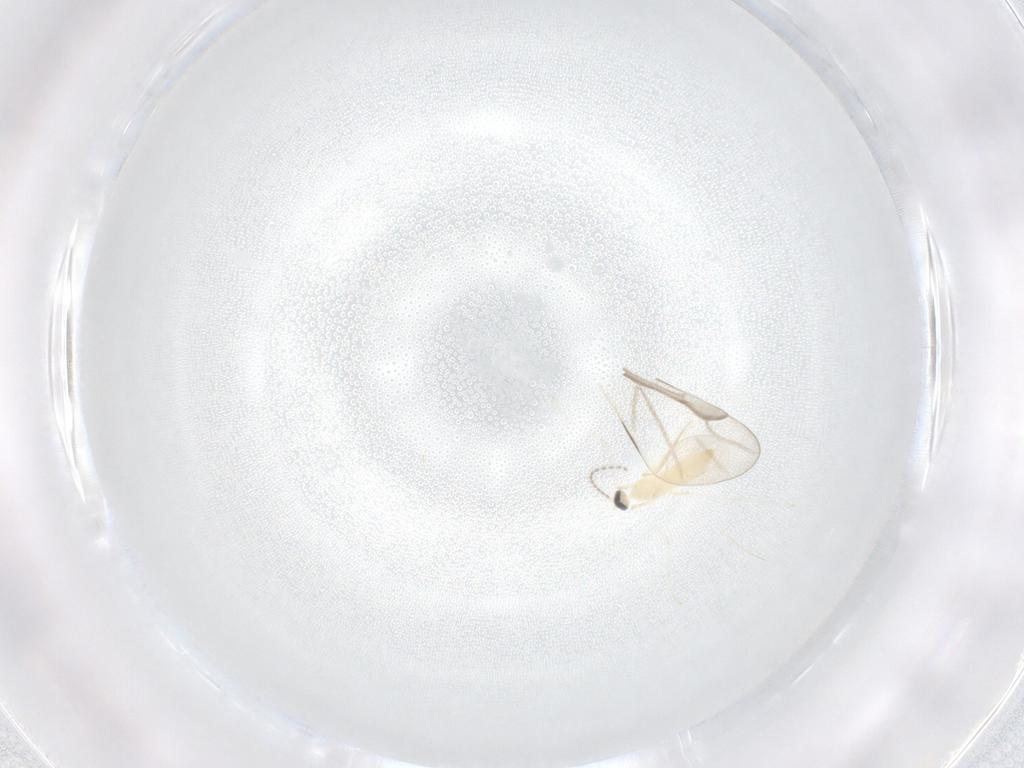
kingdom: Animalia
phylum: Arthropoda
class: Insecta
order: Diptera
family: Cecidomyiidae
